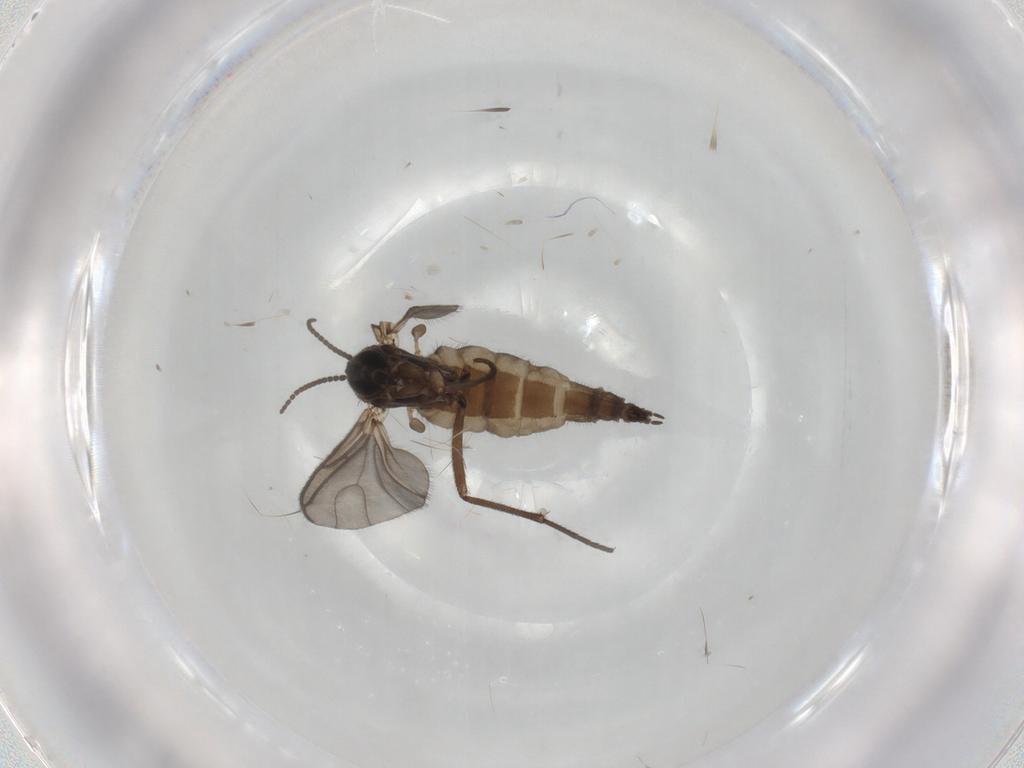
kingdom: Animalia
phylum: Arthropoda
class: Insecta
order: Diptera
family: Sciaridae
